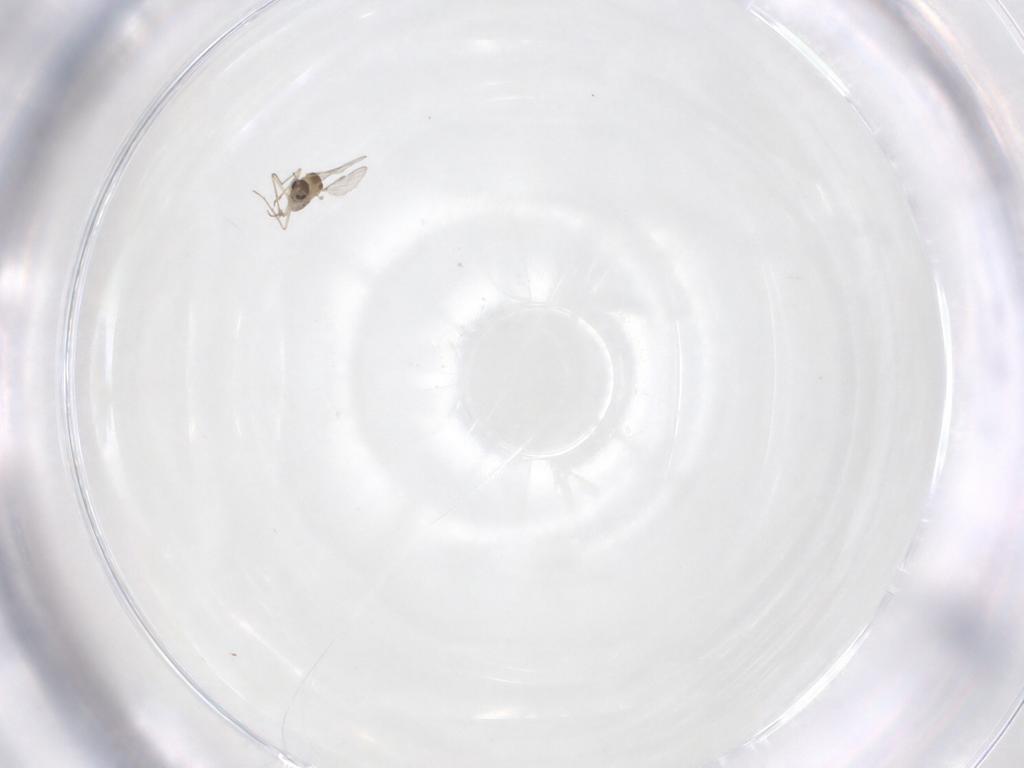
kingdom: Animalia
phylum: Arthropoda
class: Insecta
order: Diptera
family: Chironomidae
